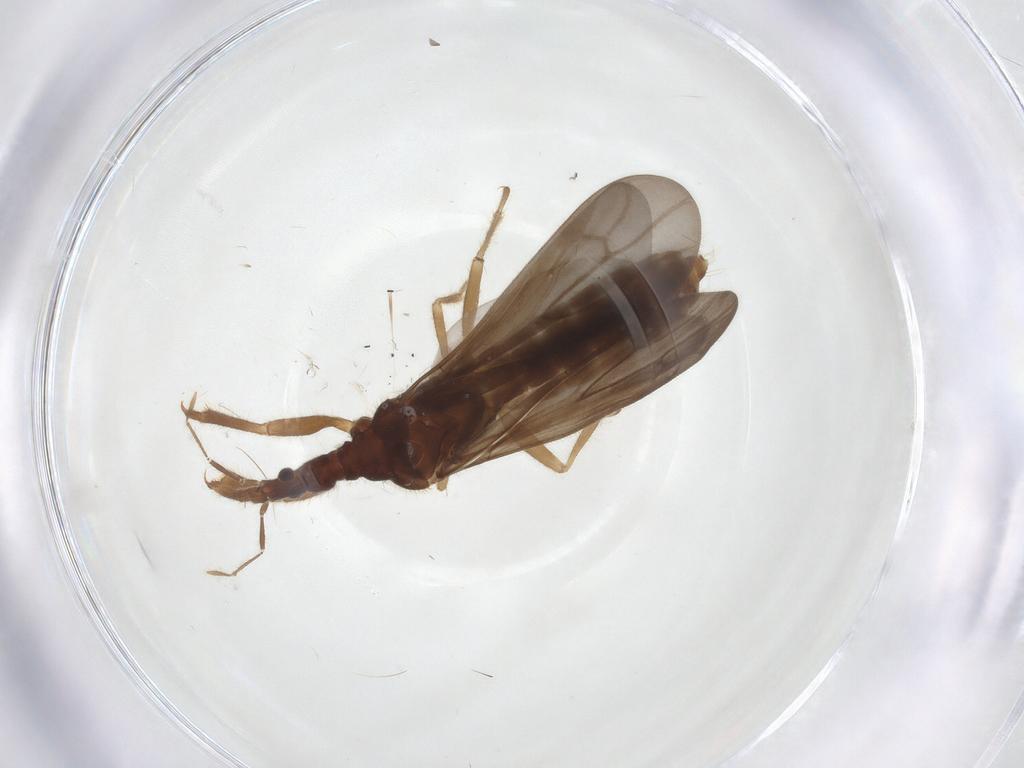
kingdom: Animalia
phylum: Arthropoda
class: Insecta
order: Hemiptera
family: Enicocephalidae
